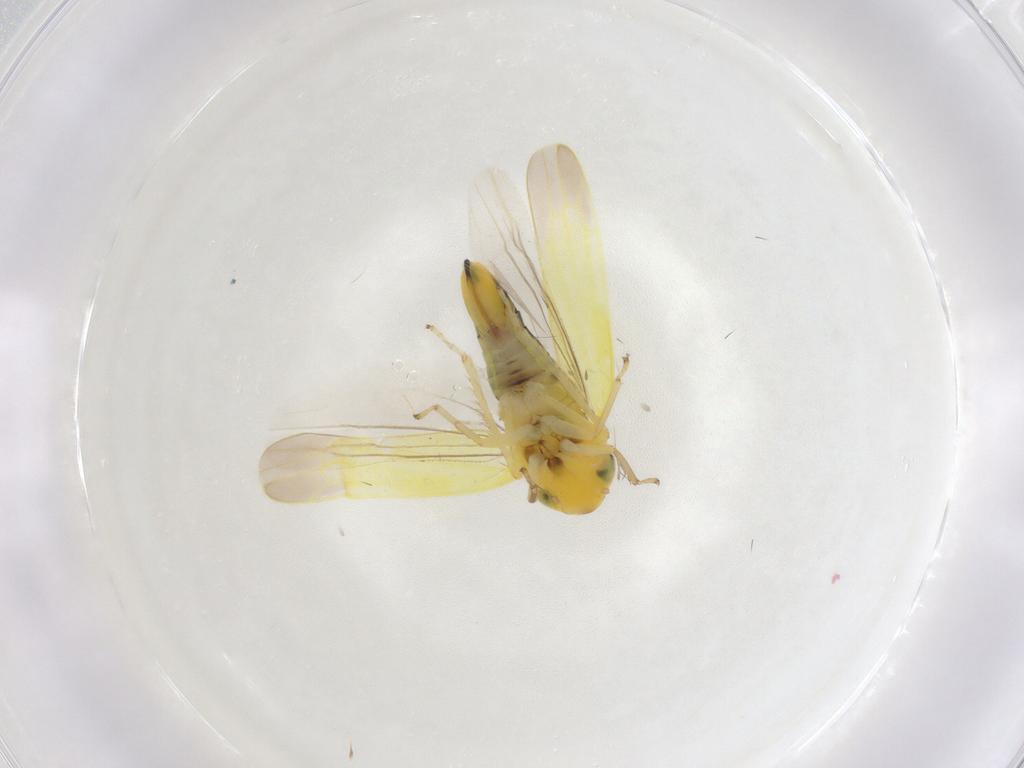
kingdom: Animalia
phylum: Arthropoda
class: Insecta
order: Hemiptera
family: Cicadellidae
